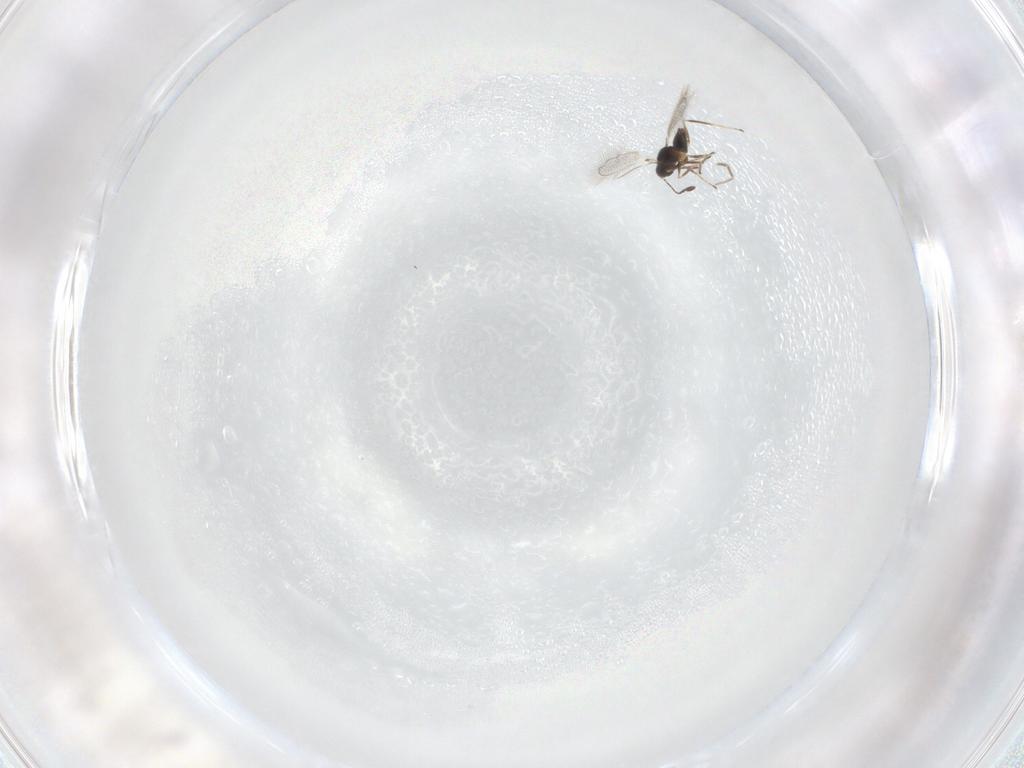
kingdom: Animalia
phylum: Arthropoda
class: Insecta
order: Hymenoptera
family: Mymaridae
